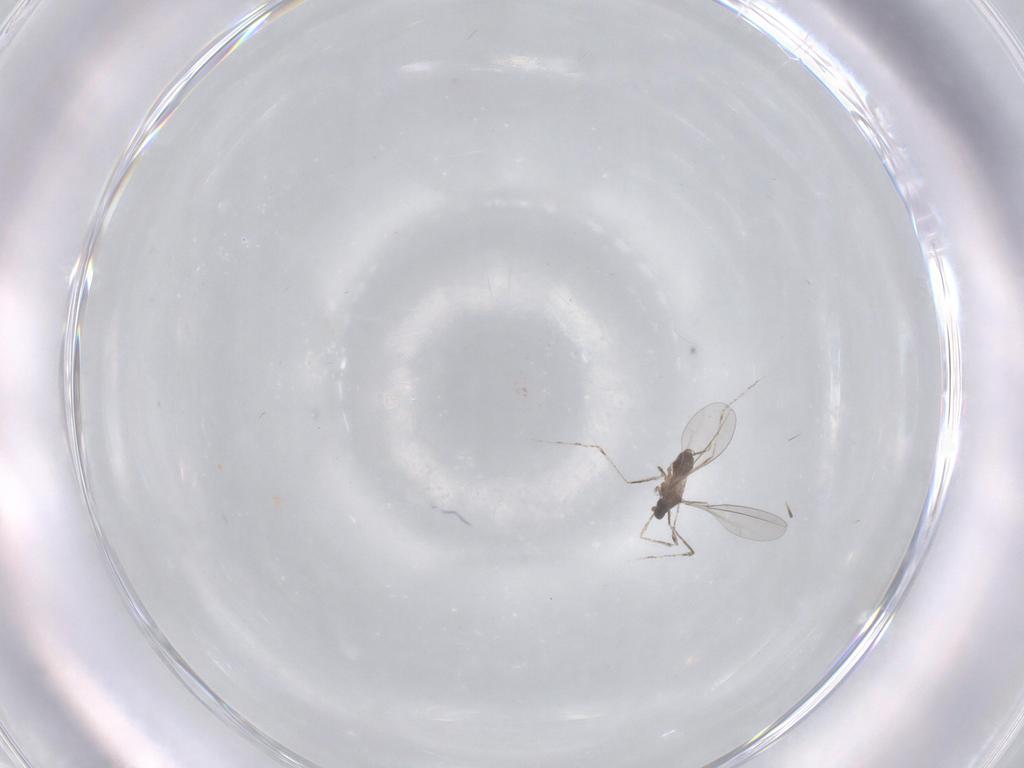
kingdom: Animalia
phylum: Arthropoda
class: Insecta
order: Diptera
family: Cecidomyiidae
